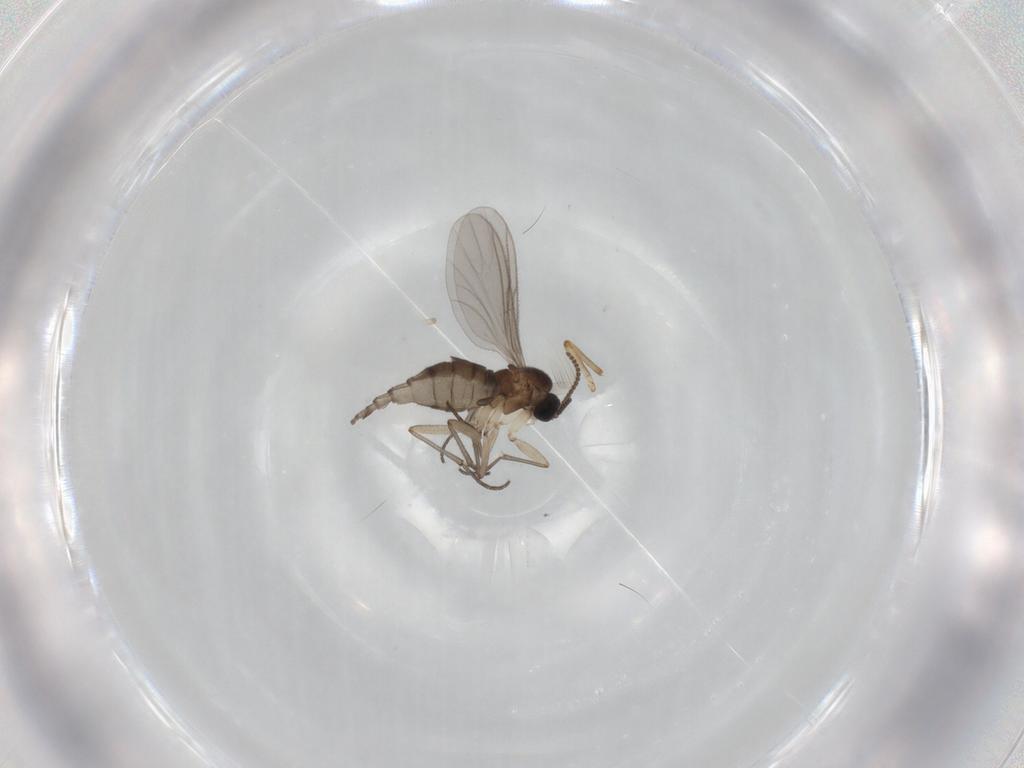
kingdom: Animalia
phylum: Arthropoda
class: Insecta
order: Diptera
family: Sciaridae
